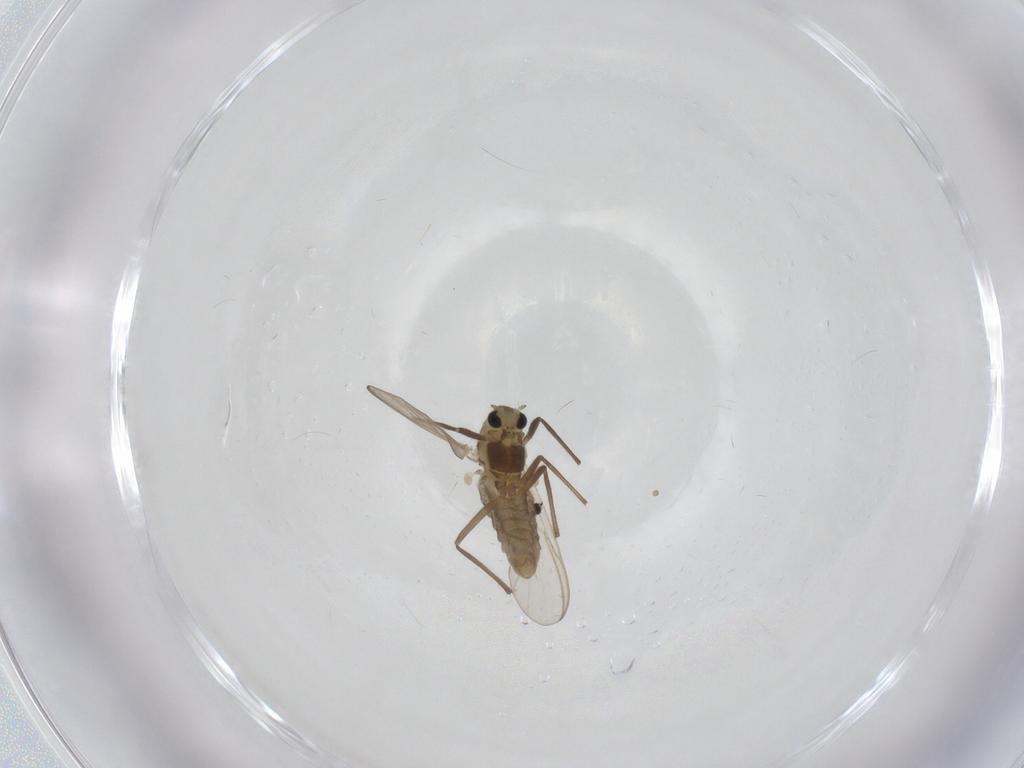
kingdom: Animalia
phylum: Arthropoda
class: Insecta
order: Diptera
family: Cecidomyiidae
